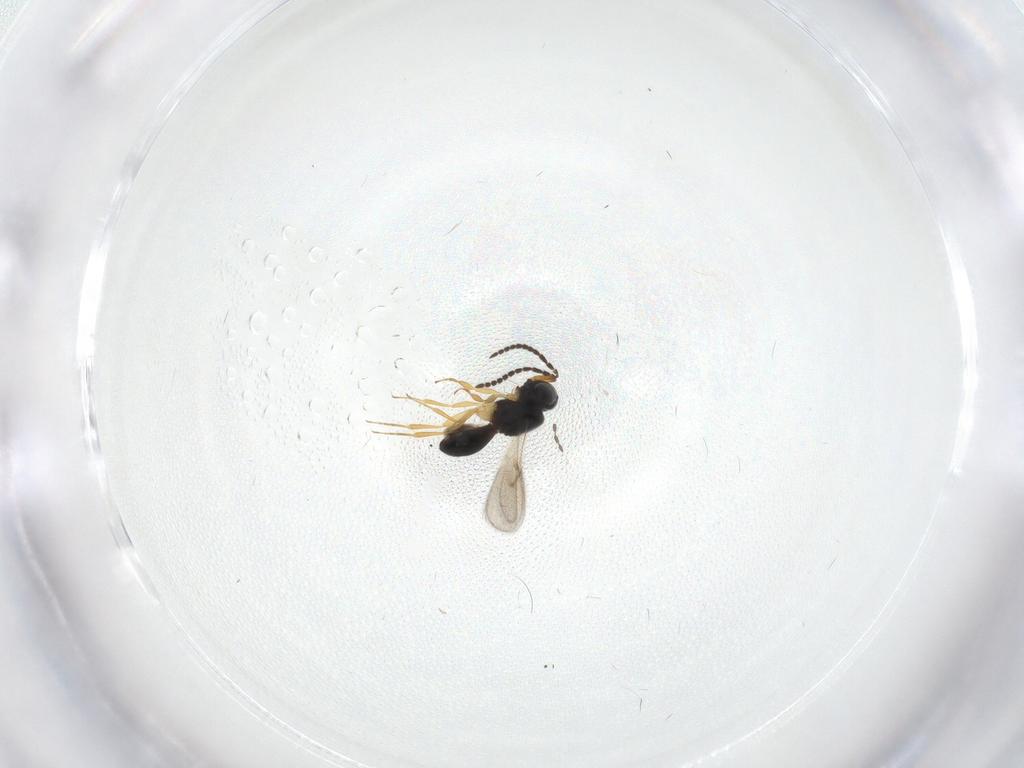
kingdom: Animalia
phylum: Arthropoda
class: Insecta
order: Hymenoptera
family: Scelionidae
